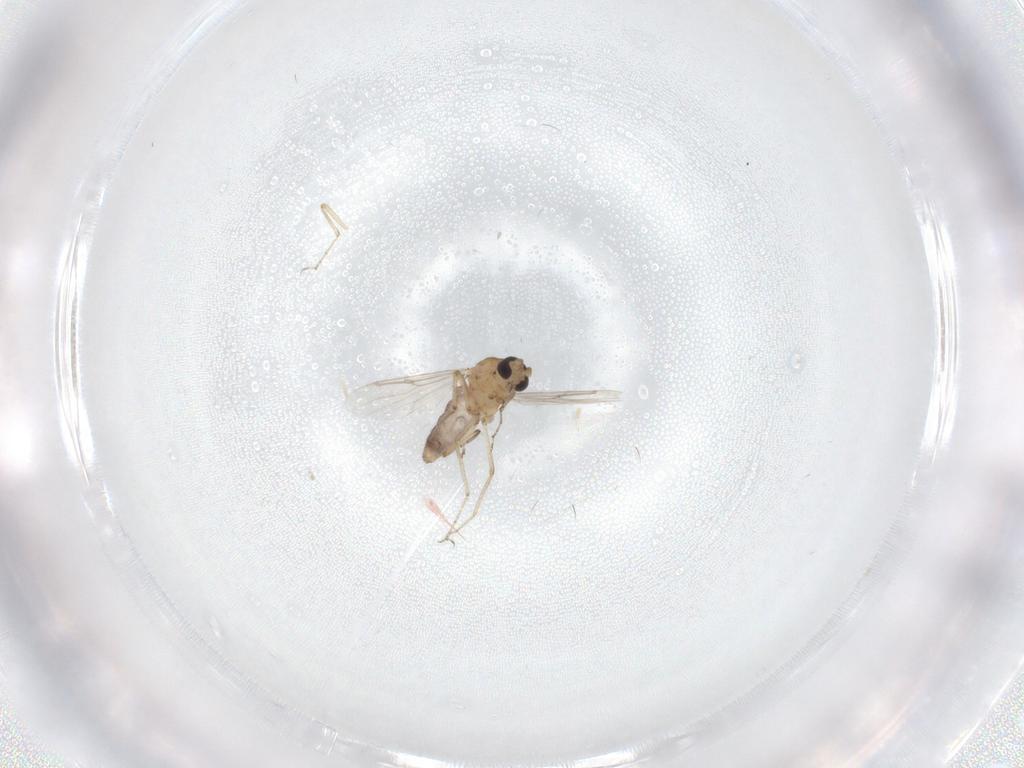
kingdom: Animalia
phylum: Arthropoda
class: Insecta
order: Diptera
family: Ceratopogonidae
